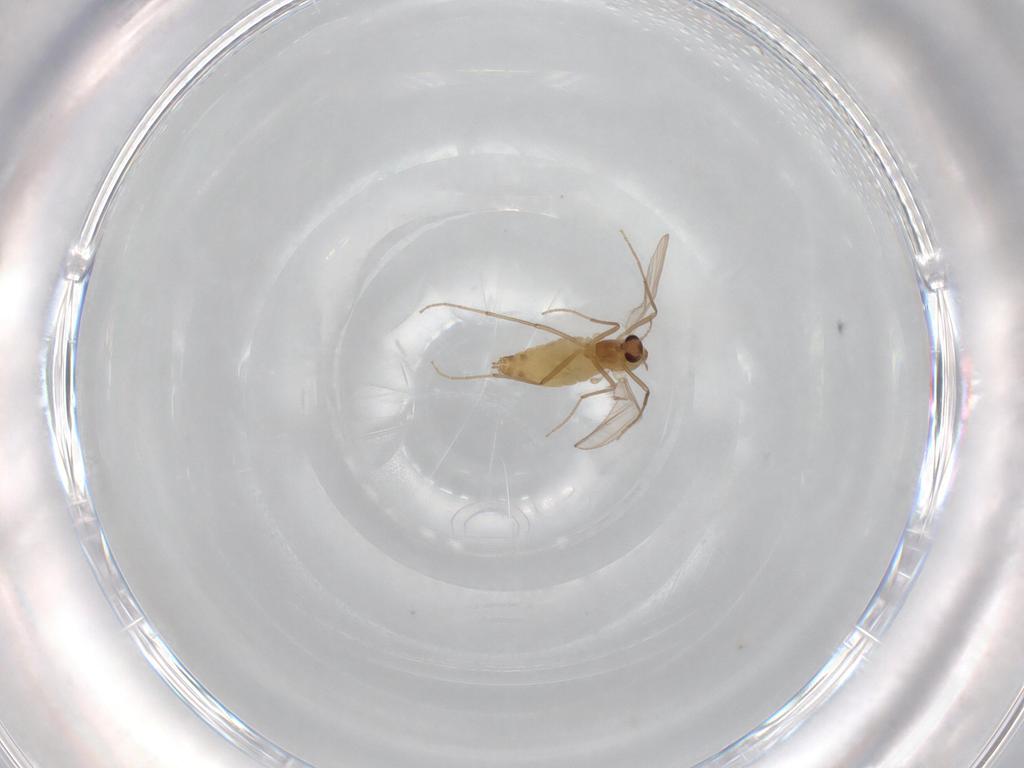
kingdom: Animalia
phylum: Arthropoda
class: Insecta
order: Diptera
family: Chironomidae
